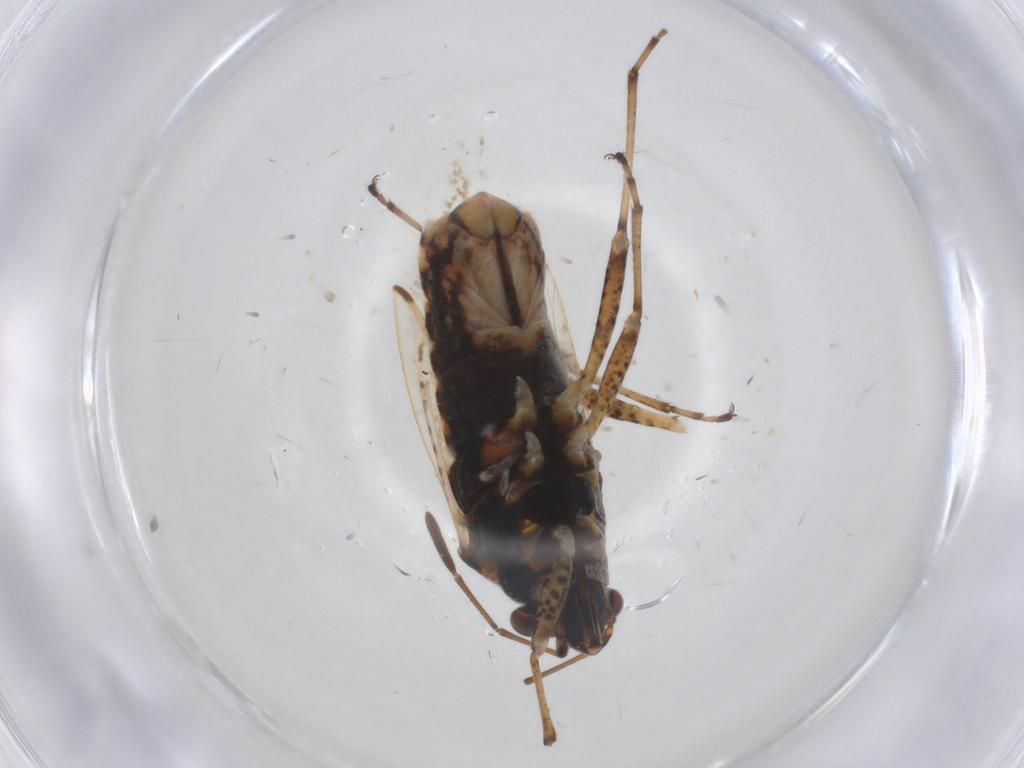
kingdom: Animalia
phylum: Arthropoda
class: Insecta
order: Hemiptera
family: Lygaeidae
